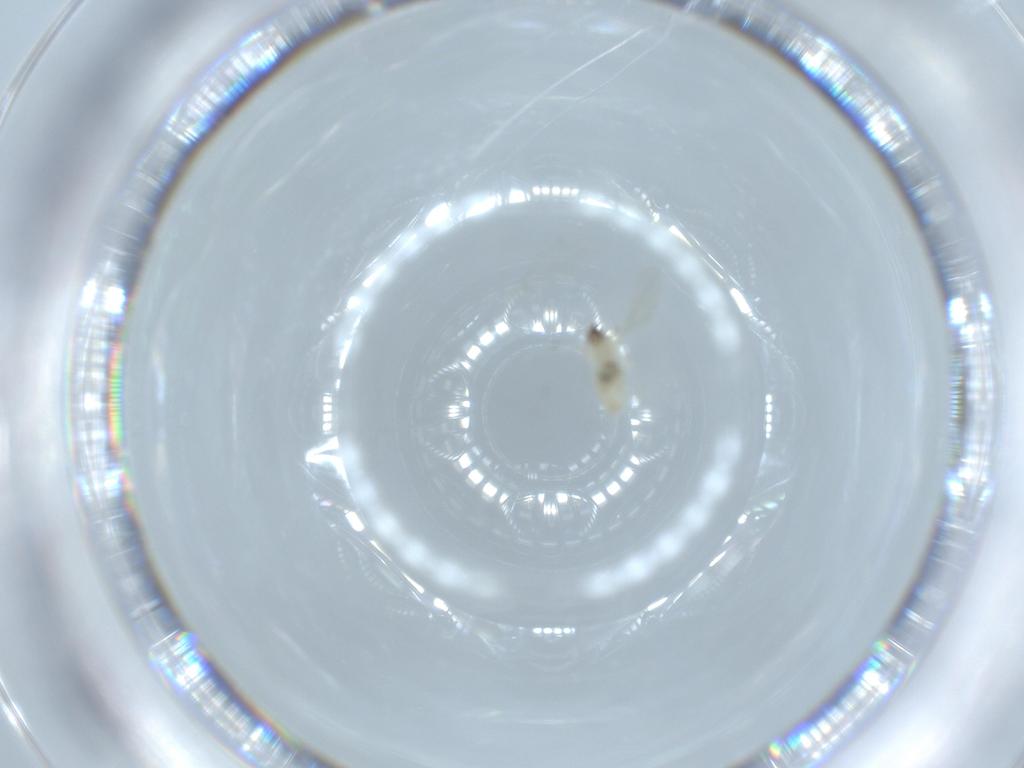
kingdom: Animalia
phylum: Arthropoda
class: Insecta
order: Diptera
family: Cecidomyiidae
